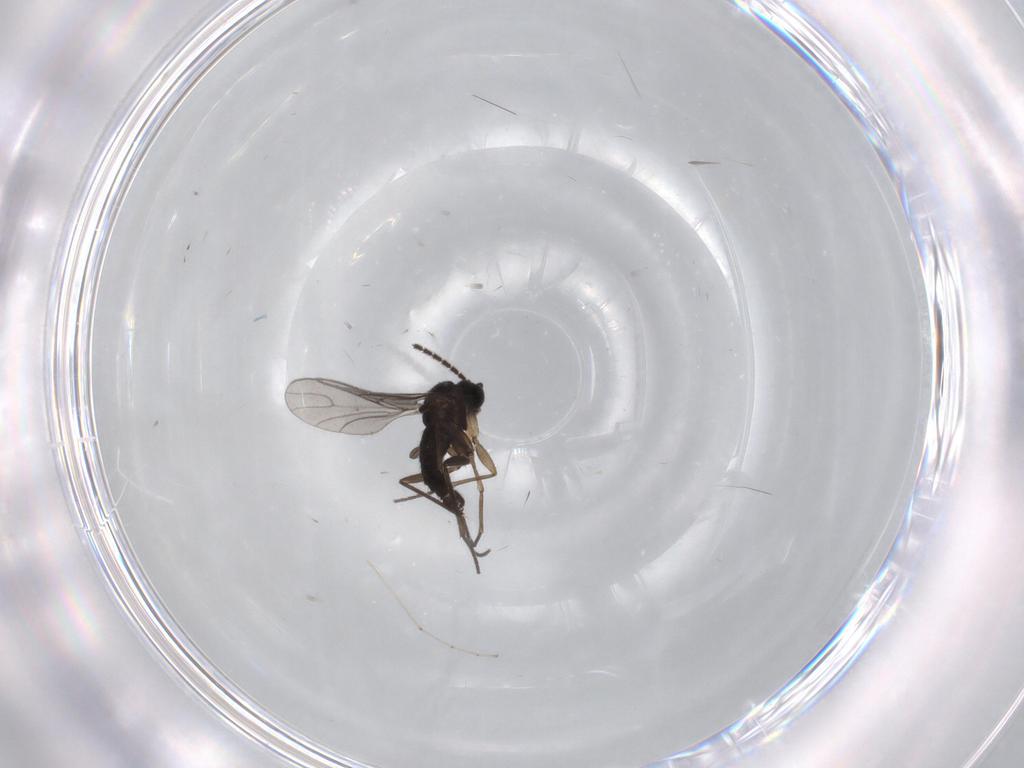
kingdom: Animalia
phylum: Arthropoda
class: Insecta
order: Diptera
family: Sciaridae
